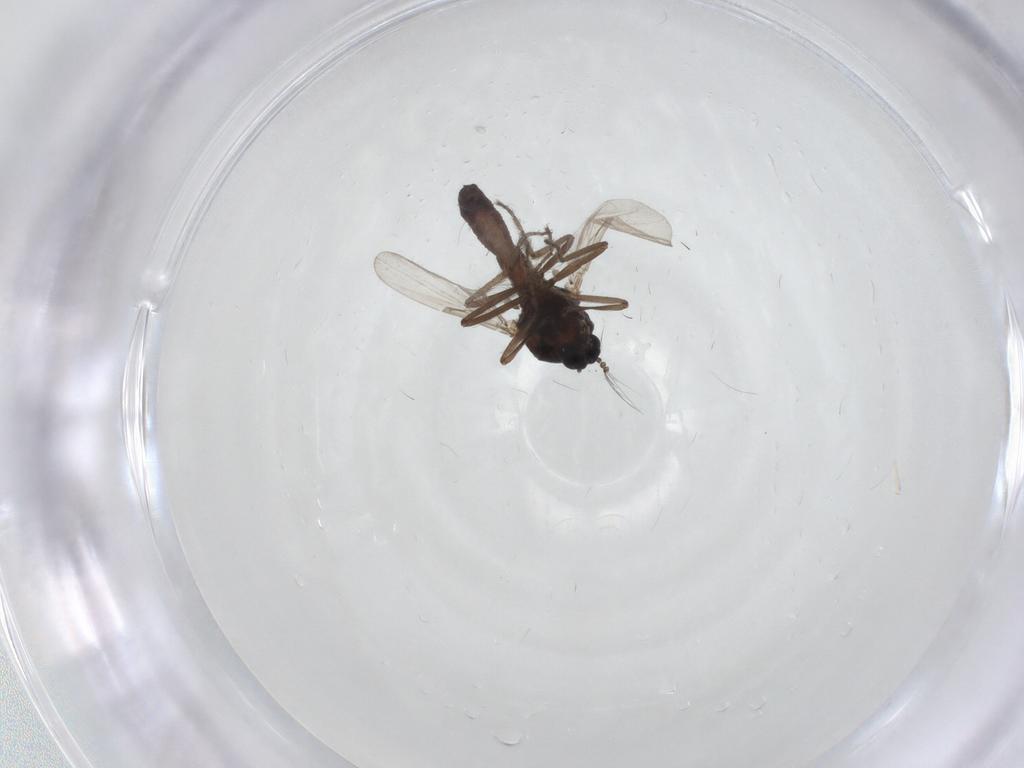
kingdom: Animalia
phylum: Arthropoda
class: Insecta
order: Diptera
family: Ceratopogonidae
